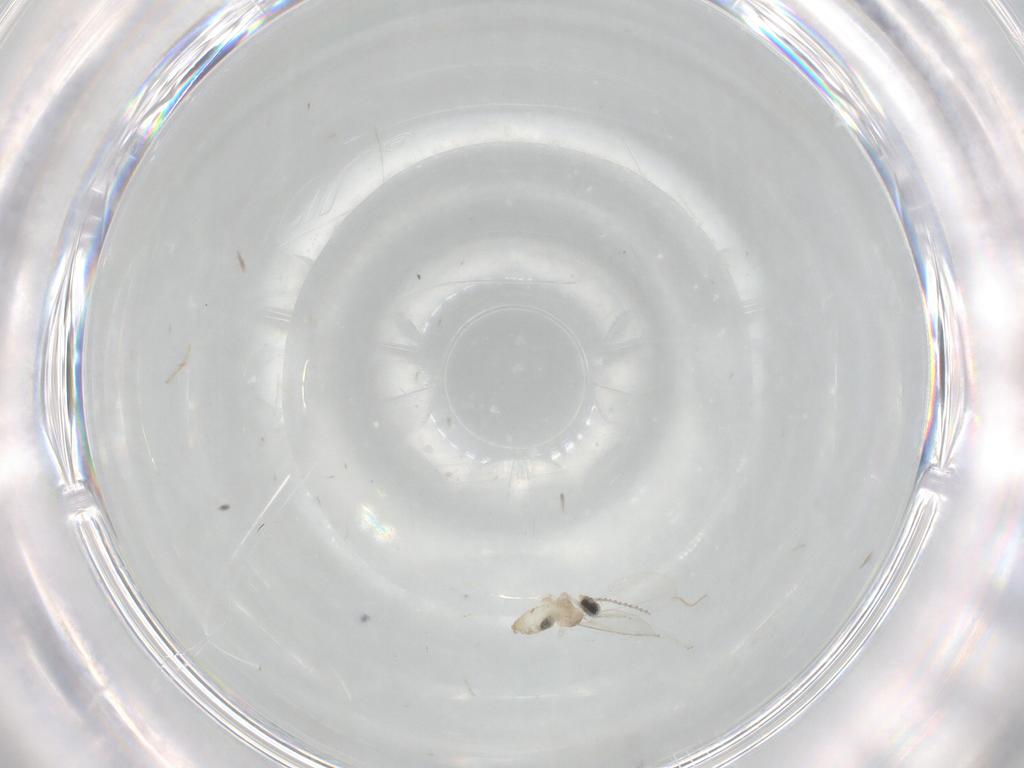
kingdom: Animalia
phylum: Arthropoda
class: Insecta
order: Diptera
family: Cecidomyiidae
